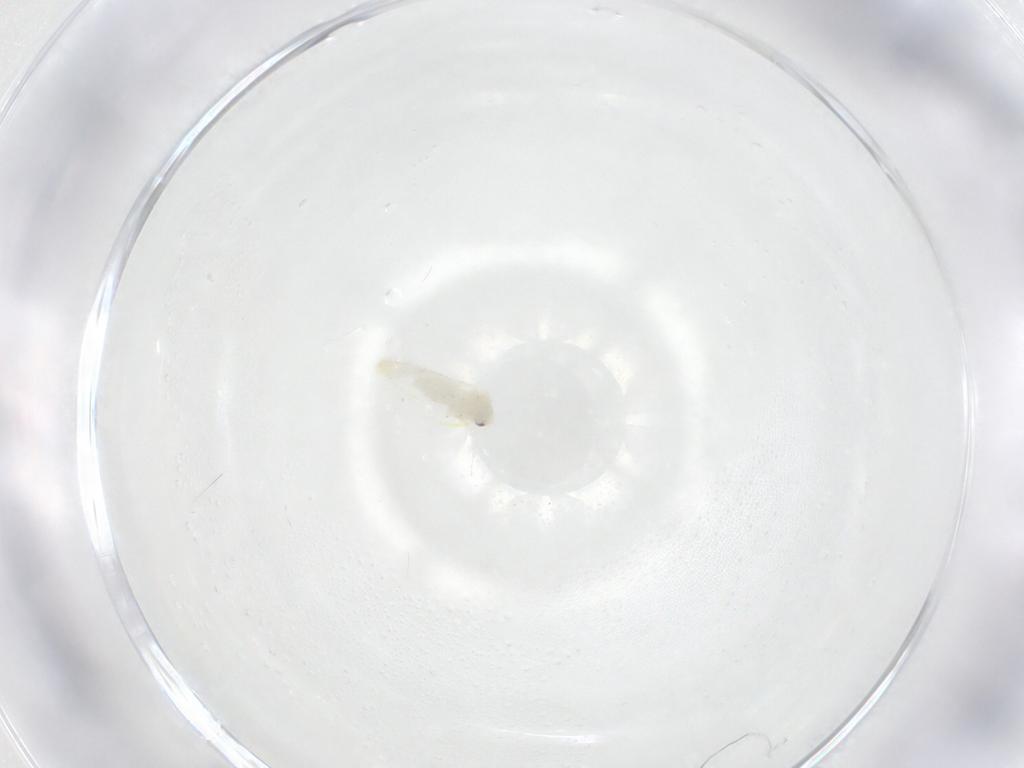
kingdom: Animalia
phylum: Arthropoda
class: Insecta
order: Hemiptera
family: Aleyrodidae
